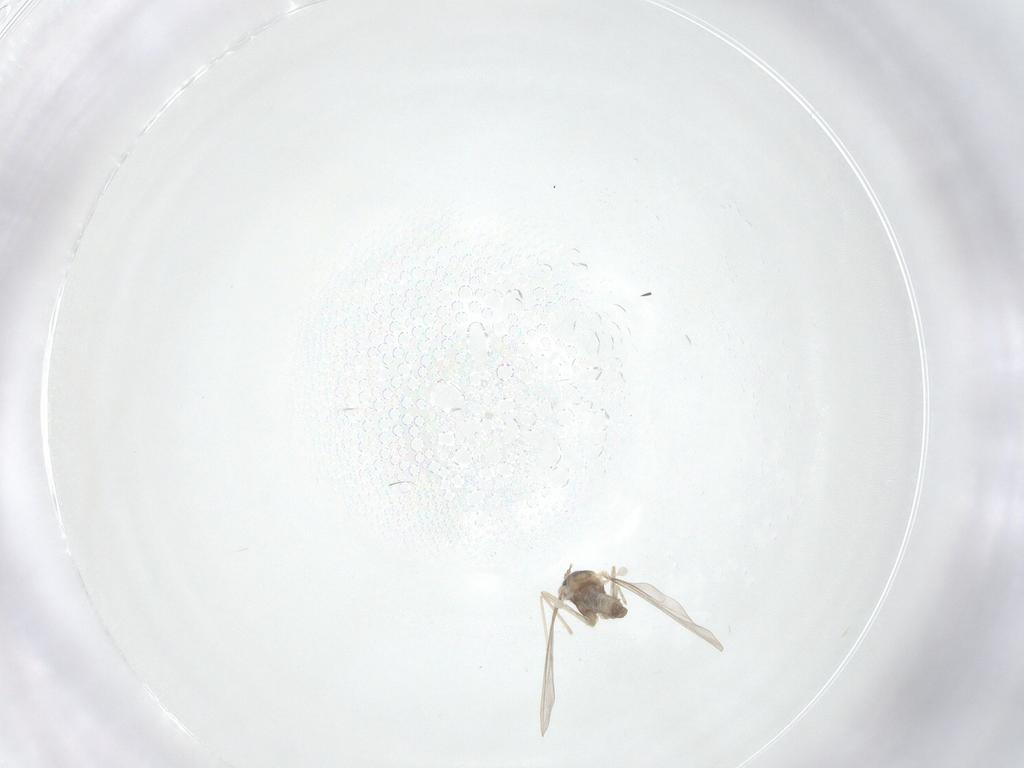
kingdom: Animalia
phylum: Arthropoda
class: Insecta
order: Diptera
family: Cecidomyiidae
